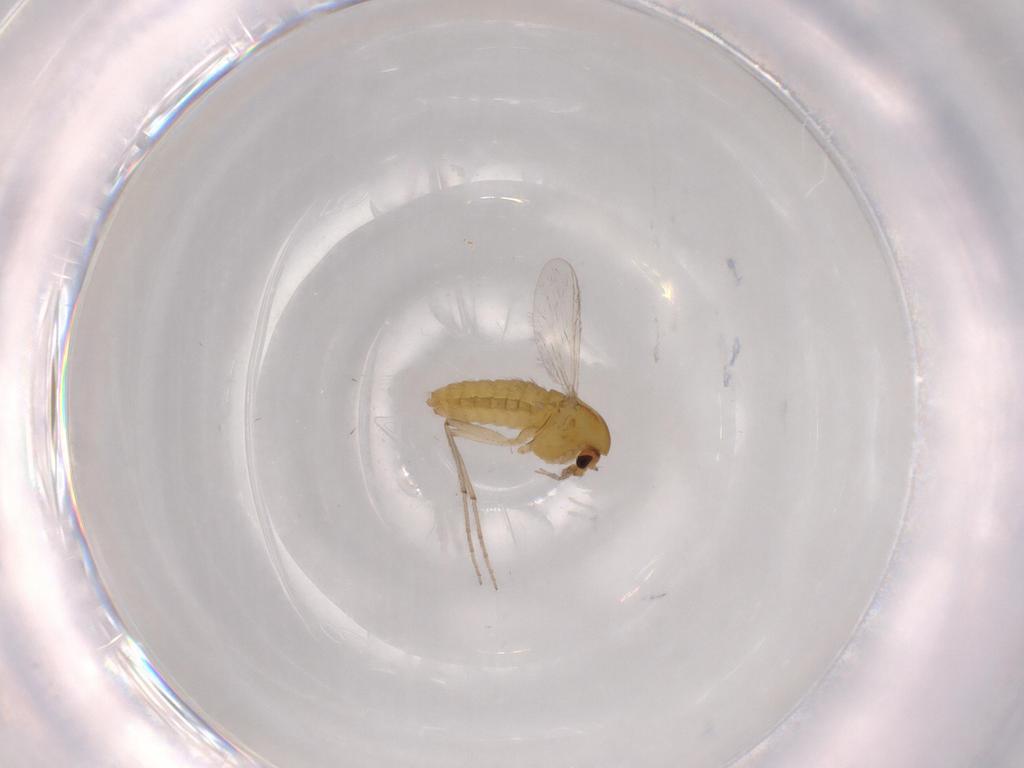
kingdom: Animalia
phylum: Arthropoda
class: Insecta
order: Diptera
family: Chironomidae
